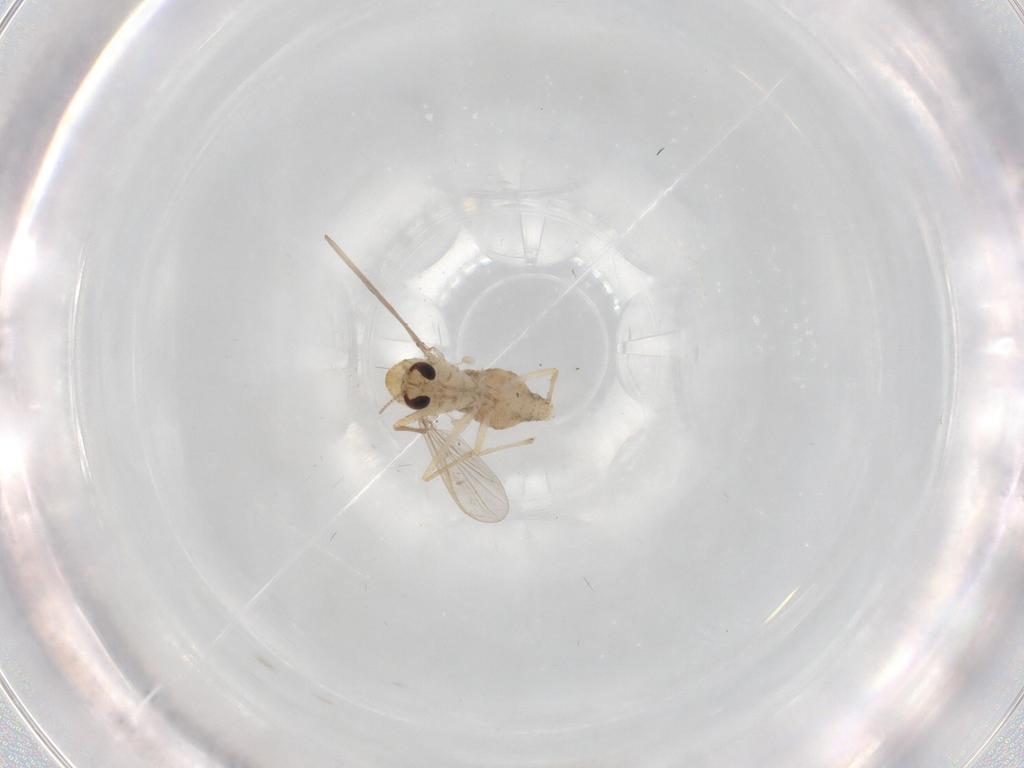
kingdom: Animalia
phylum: Arthropoda
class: Insecta
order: Diptera
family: Chironomidae
